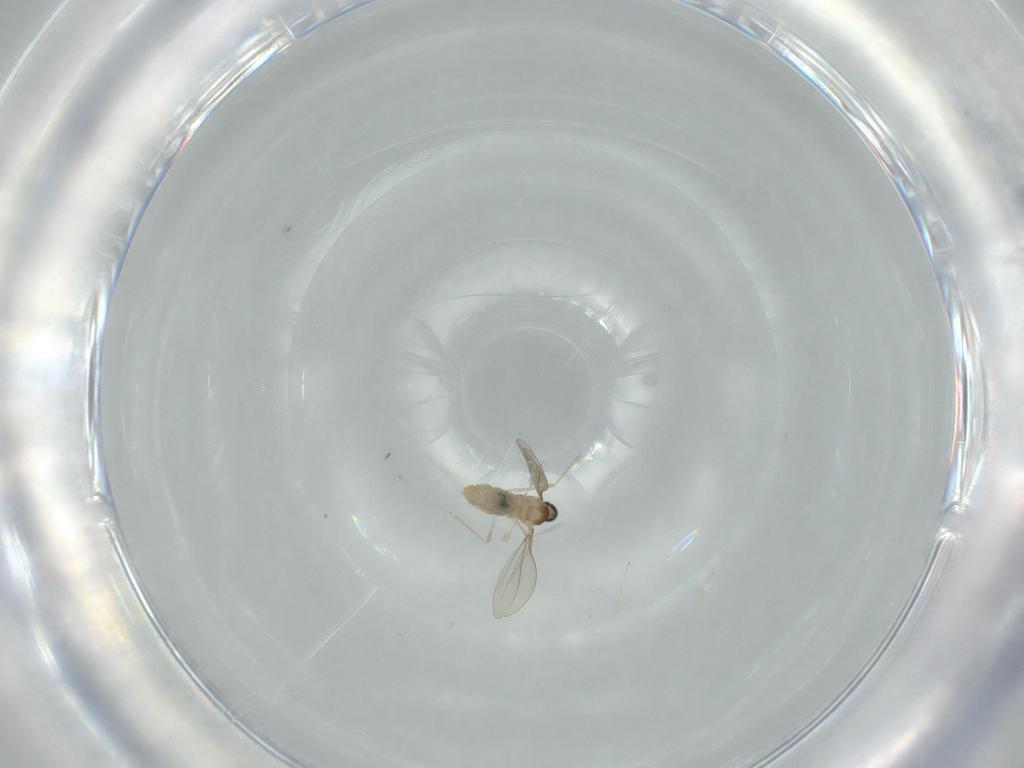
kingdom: Animalia
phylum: Arthropoda
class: Insecta
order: Diptera
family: Cecidomyiidae
